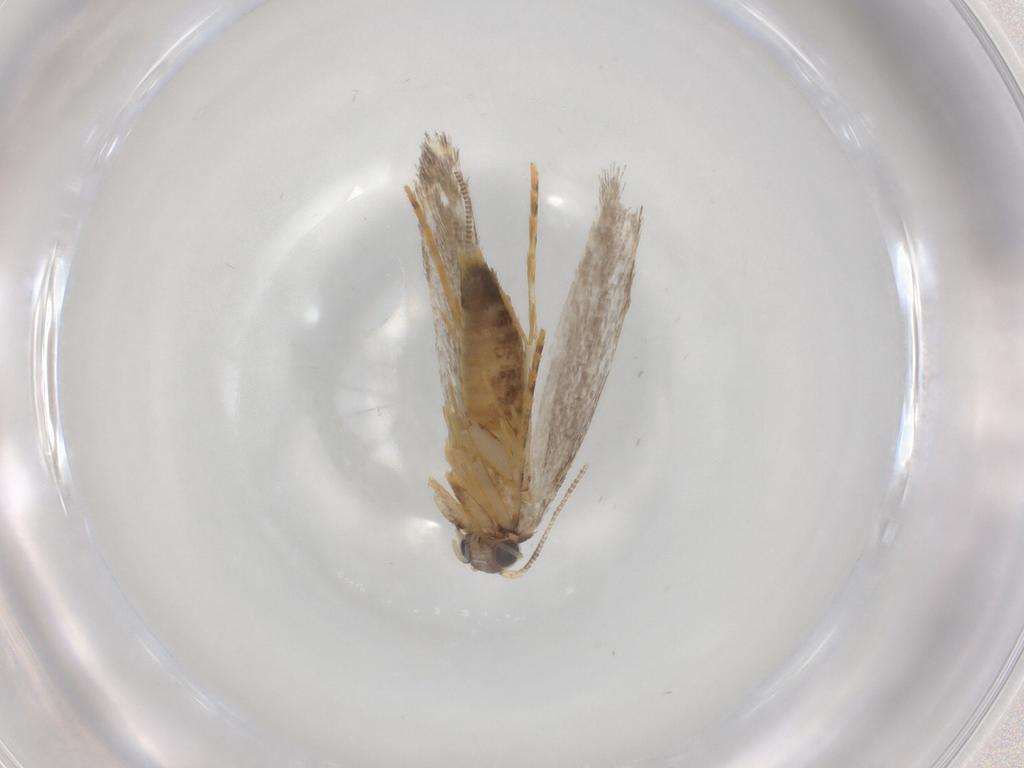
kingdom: Animalia
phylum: Arthropoda
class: Insecta
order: Lepidoptera
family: Tineidae
